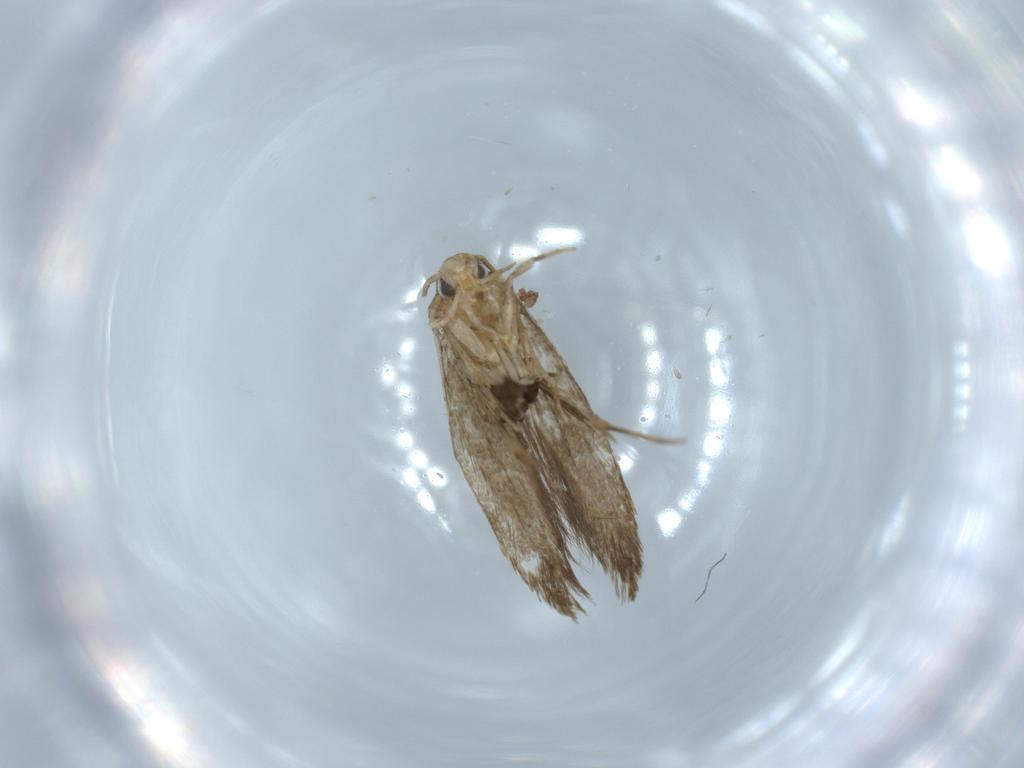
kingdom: Animalia
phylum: Arthropoda
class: Insecta
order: Lepidoptera
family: Tineidae
